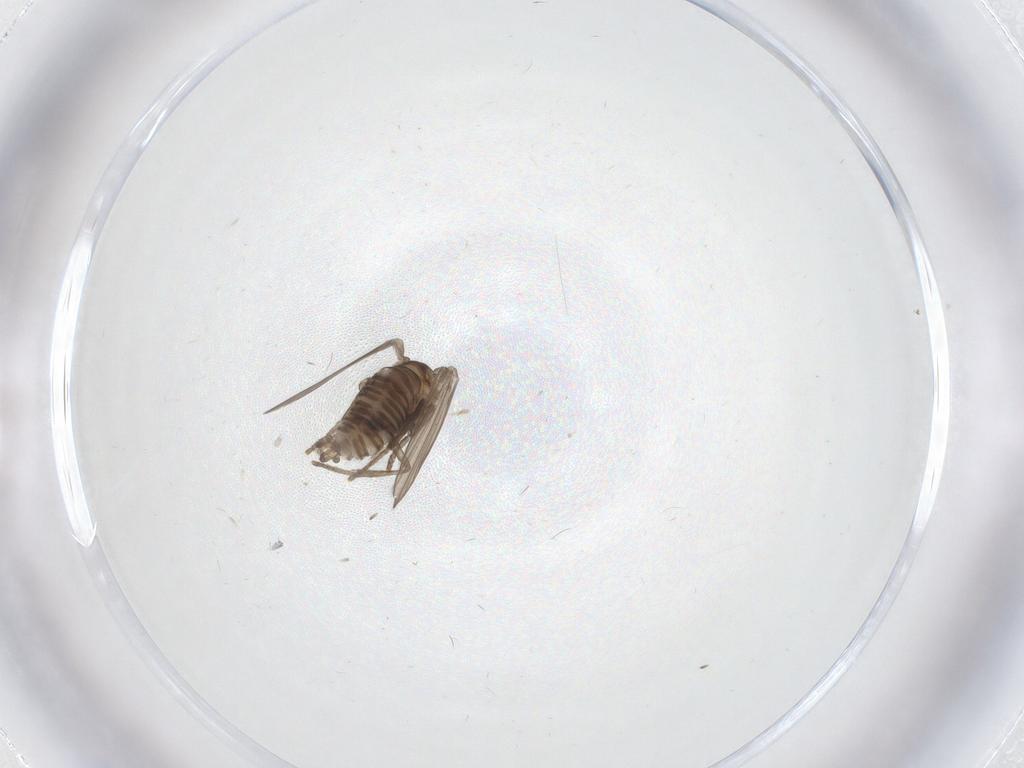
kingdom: Animalia
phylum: Arthropoda
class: Insecta
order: Diptera
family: Psychodidae
